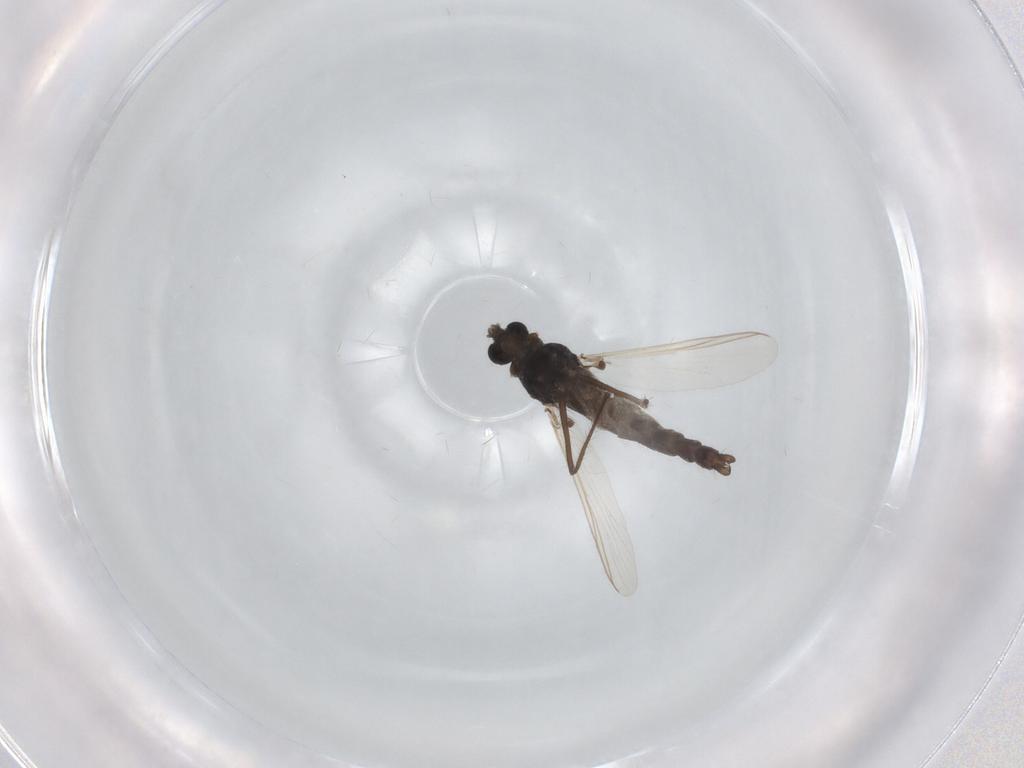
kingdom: Animalia
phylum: Arthropoda
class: Insecta
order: Diptera
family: Chironomidae
